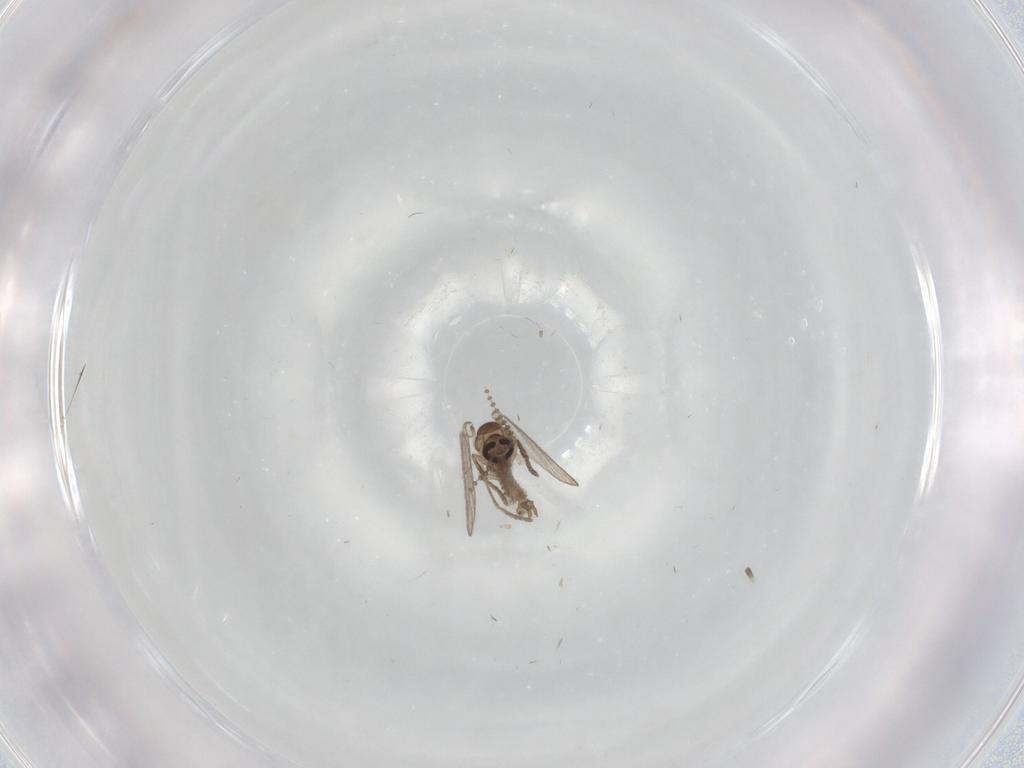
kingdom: Animalia
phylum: Arthropoda
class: Insecta
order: Diptera
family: Psychodidae
